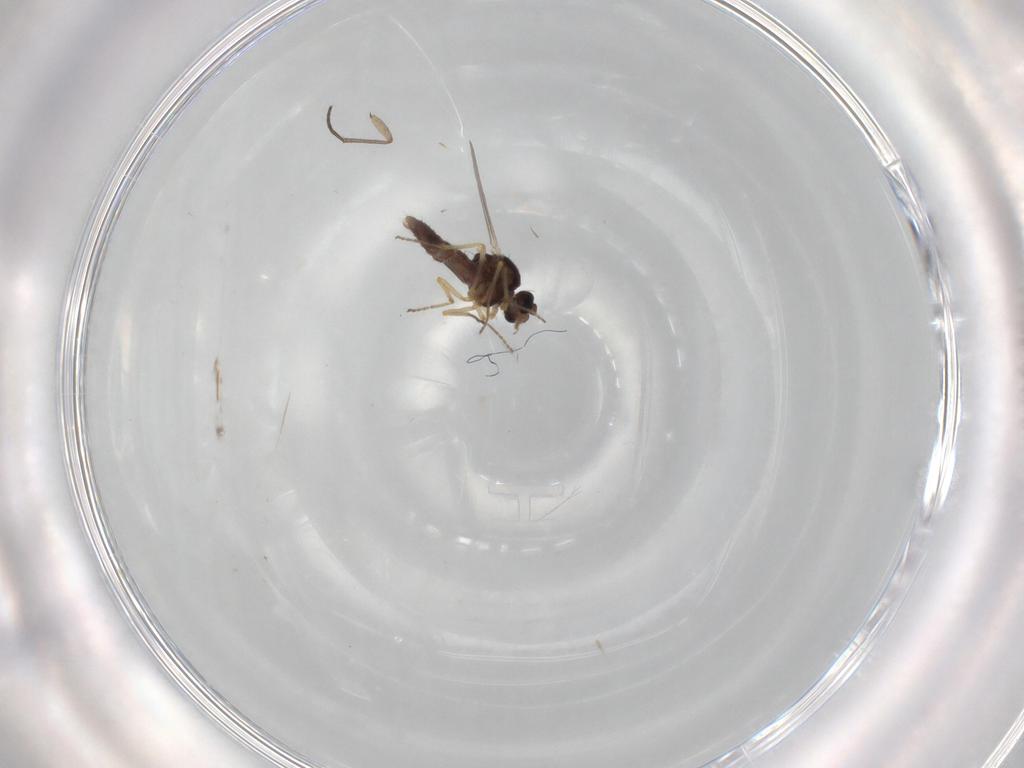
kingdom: Animalia
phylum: Arthropoda
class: Insecta
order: Diptera
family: Ceratopogonidae
